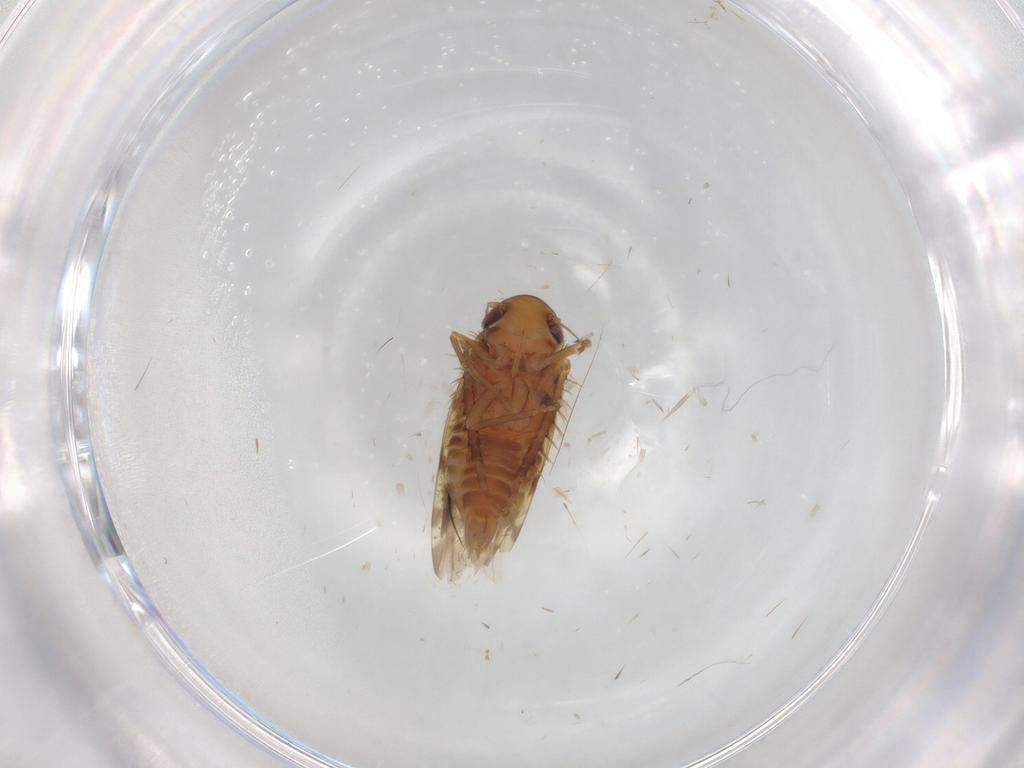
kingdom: Animalia
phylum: Arthropoda
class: Insecta
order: Hemiptera
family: Cicadellidae
